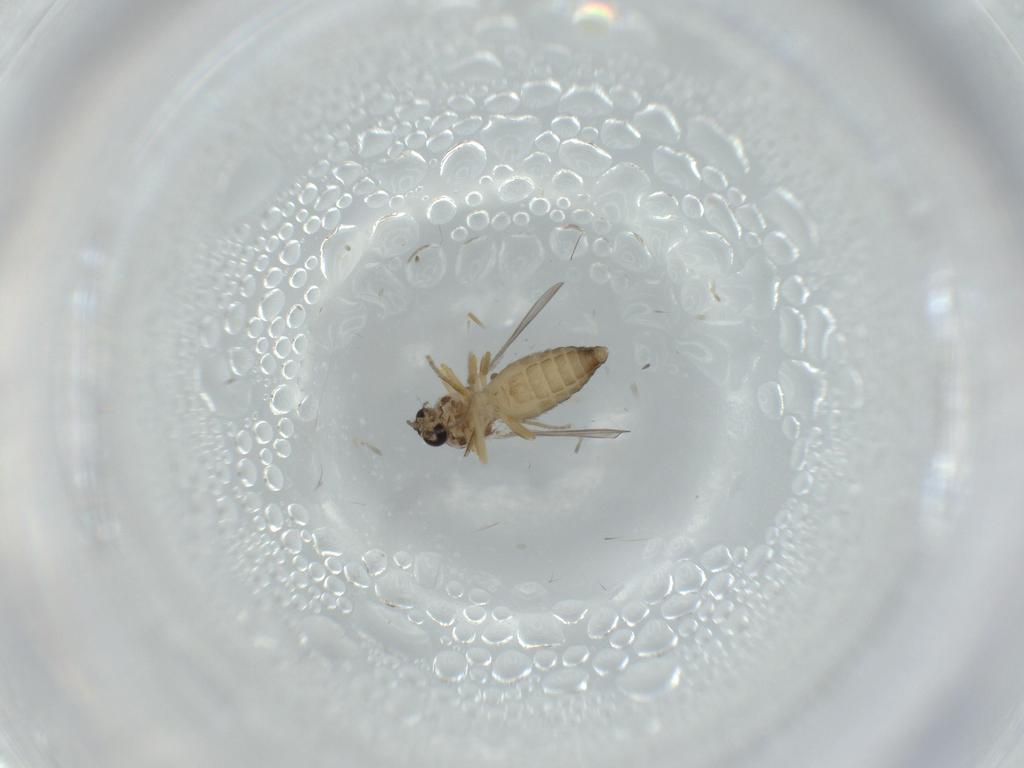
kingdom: Animalia
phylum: Arthropoda
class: Insecta
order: Diptera
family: Ceratopogonidae
